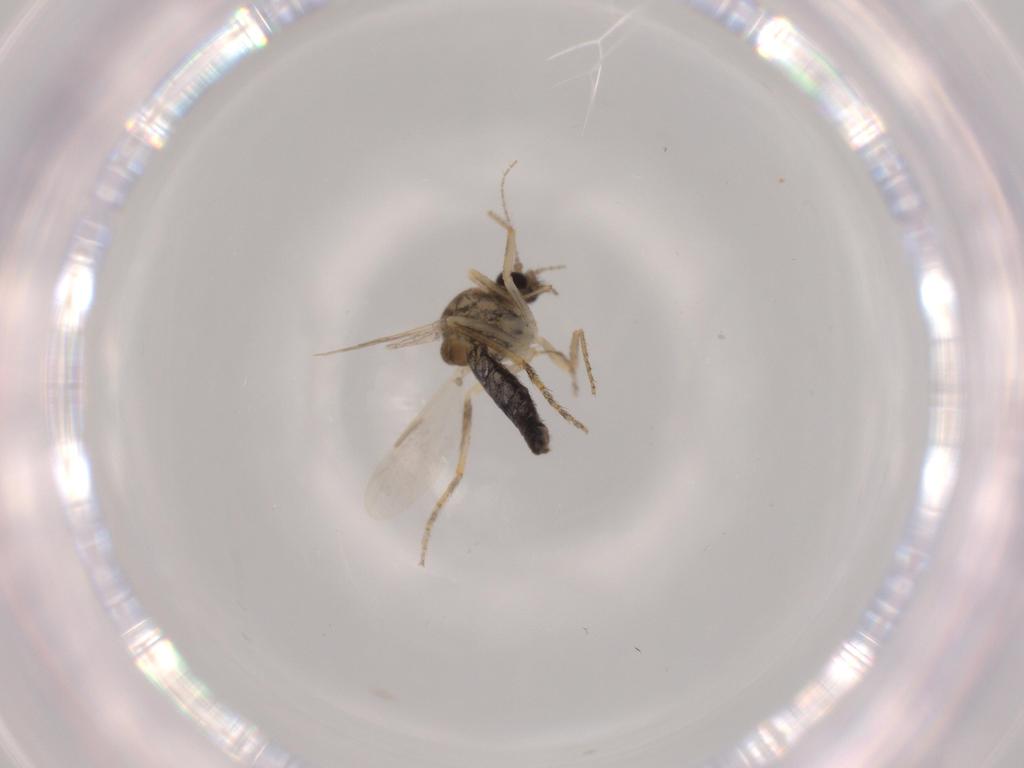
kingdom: Animalia
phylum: Arthropoda
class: Insecta
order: Diptera
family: Ceratopogonidae
